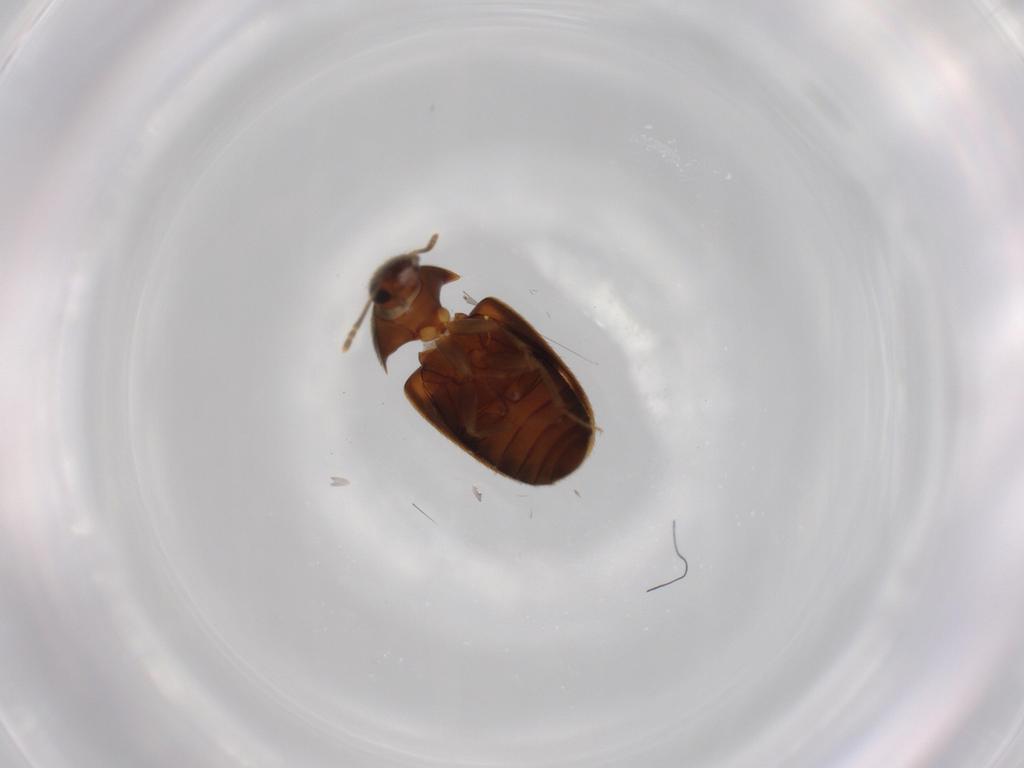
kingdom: Animalia
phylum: Arthropoda
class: Insecta
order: Coleoptera
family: Mycetophagidae
